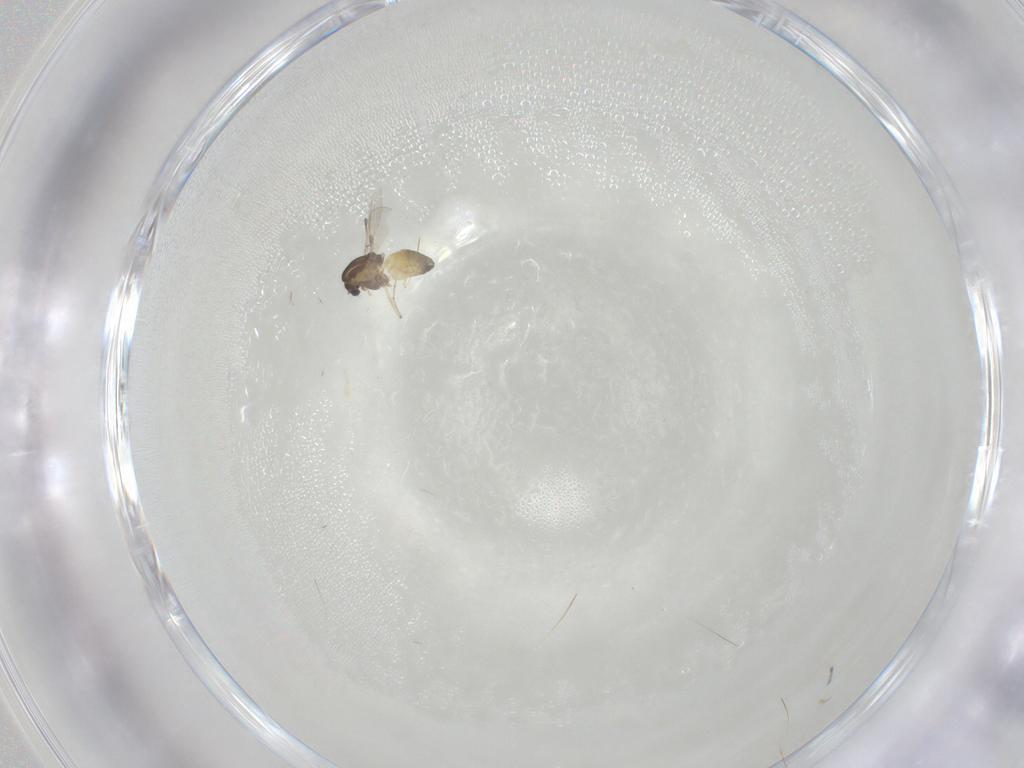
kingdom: Animalia
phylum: Arthropoda
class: Insecta
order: Diptera
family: Chironomidae
